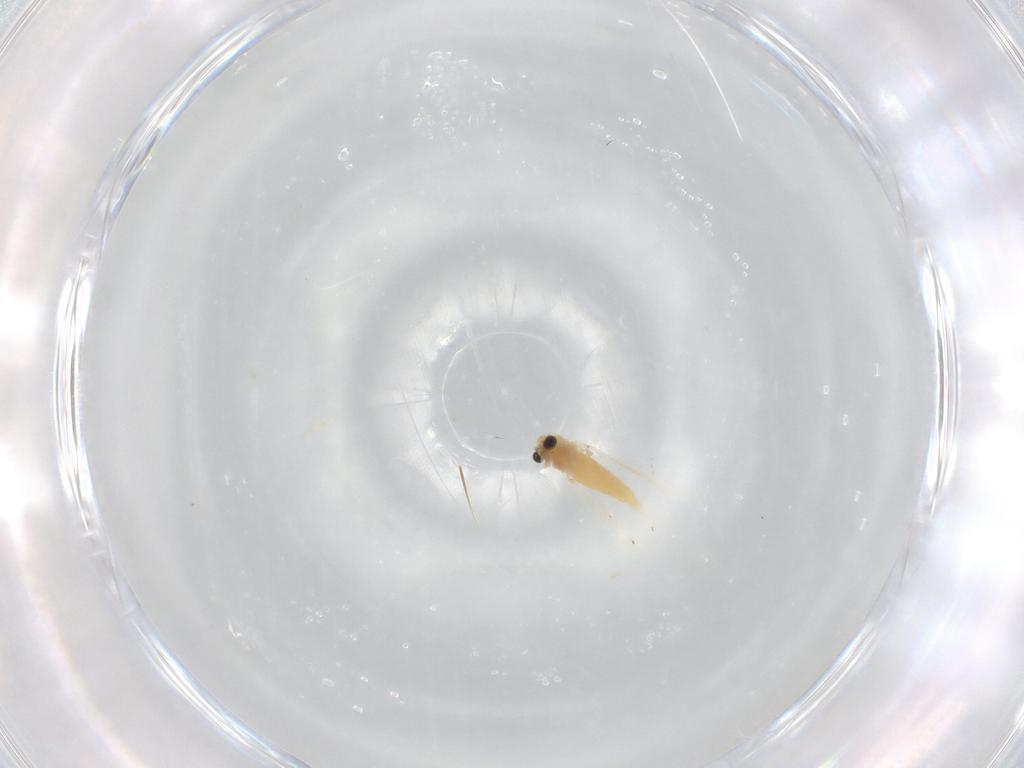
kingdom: Animalia
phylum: Arthropoda
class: Insecta
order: Diptera
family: Chironomidae
